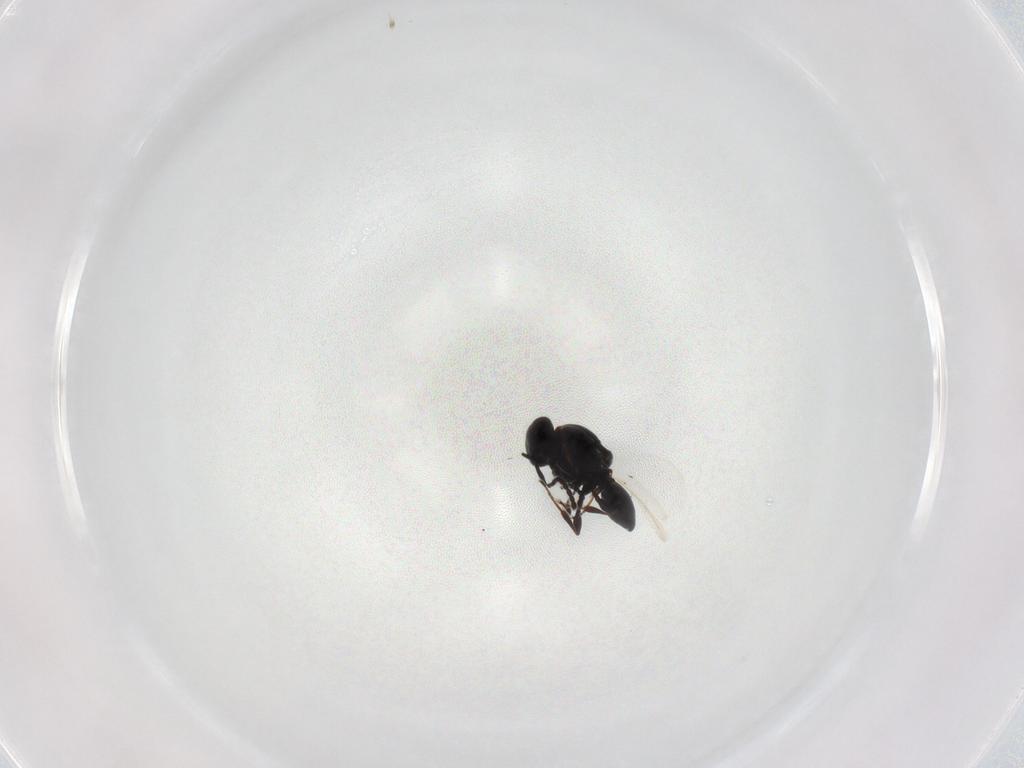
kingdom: Animalia
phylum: Arthropoda
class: Insecta
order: Hymenoptera
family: Platygastridae
